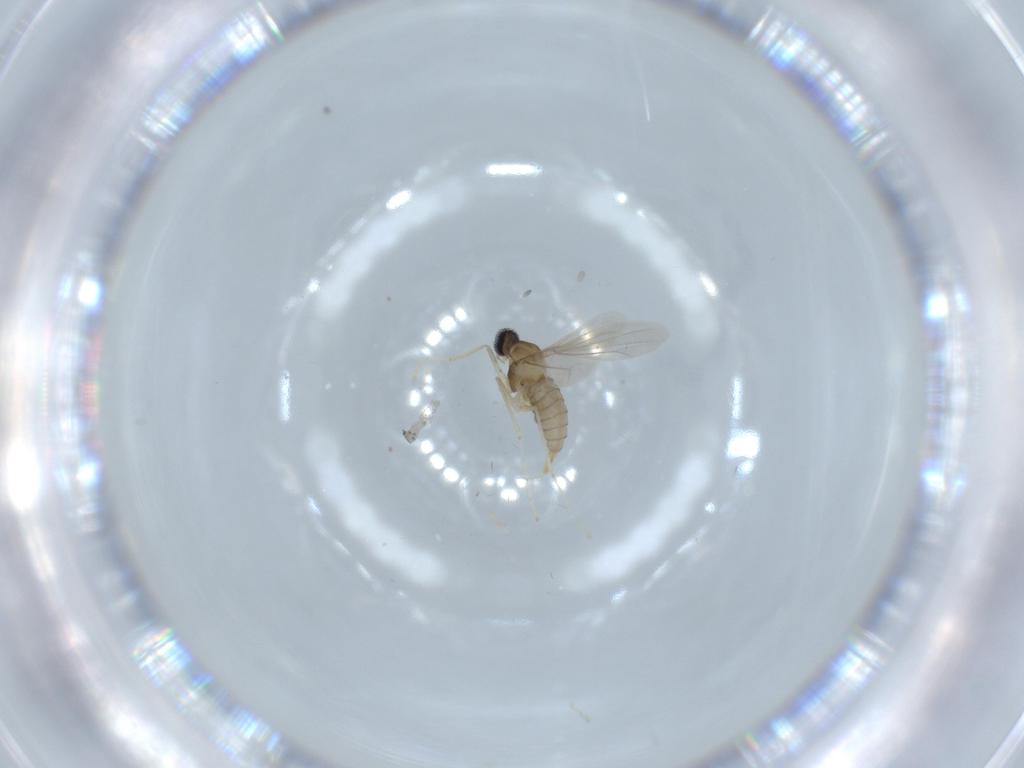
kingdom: Animalia
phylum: Arthropoda
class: Insecta
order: Diptera
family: Cecidomyiidae
